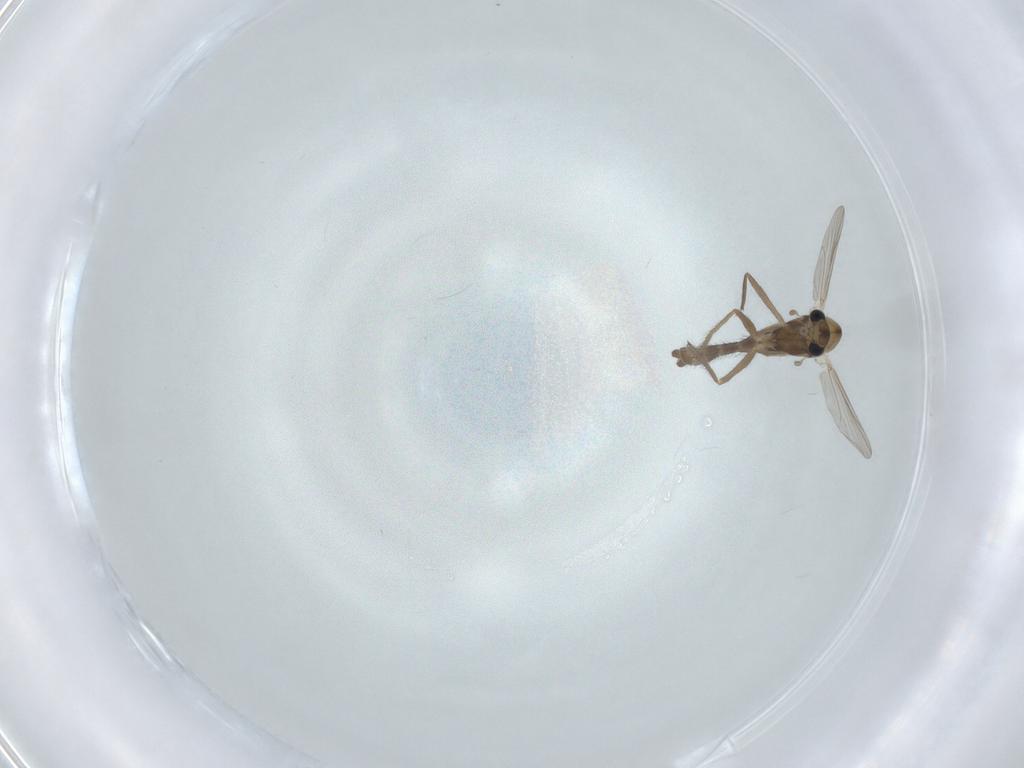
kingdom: Animalia
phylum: Arthropoda
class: Insecta
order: Diptera
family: Chironomidae
